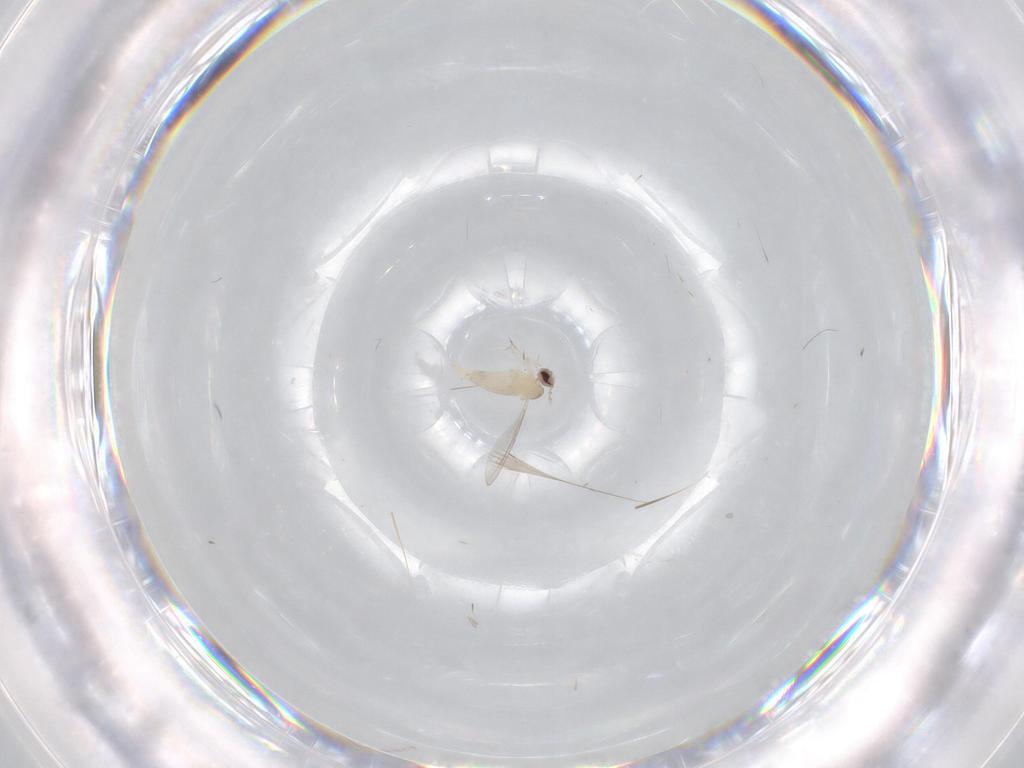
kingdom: Animalia
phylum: Arthropoda
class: Insecta
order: Diptera
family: Cecidomyiidae
